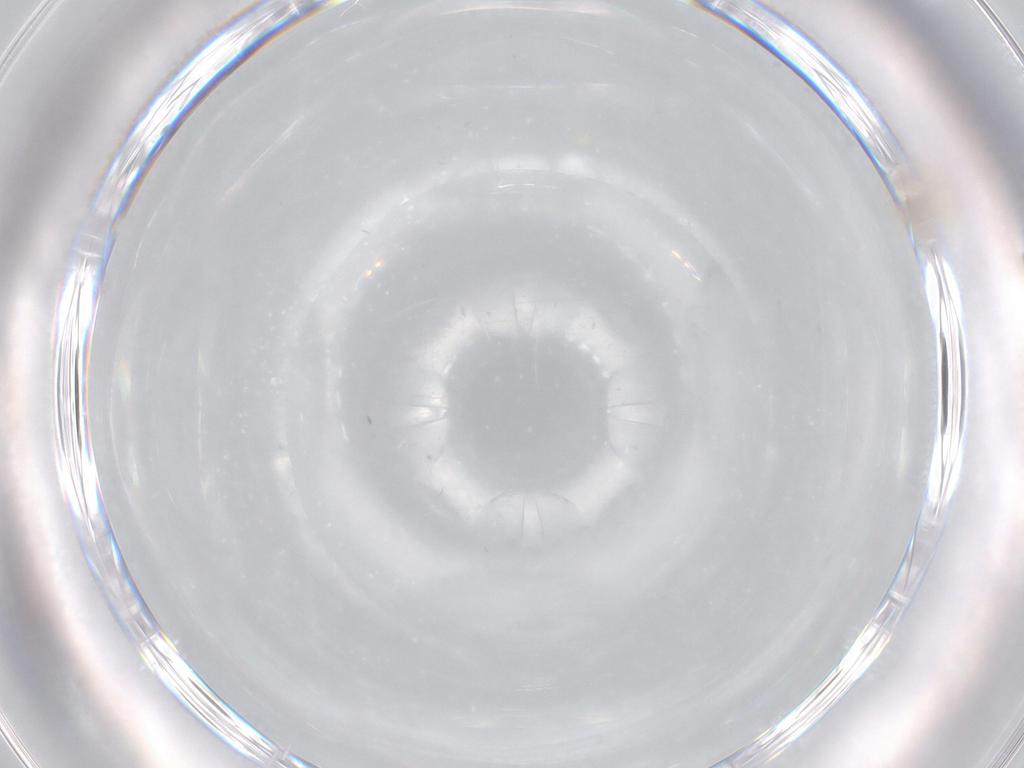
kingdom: Animalia
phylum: Arthropoda
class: Insecta
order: Diptera
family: Chironomidae
